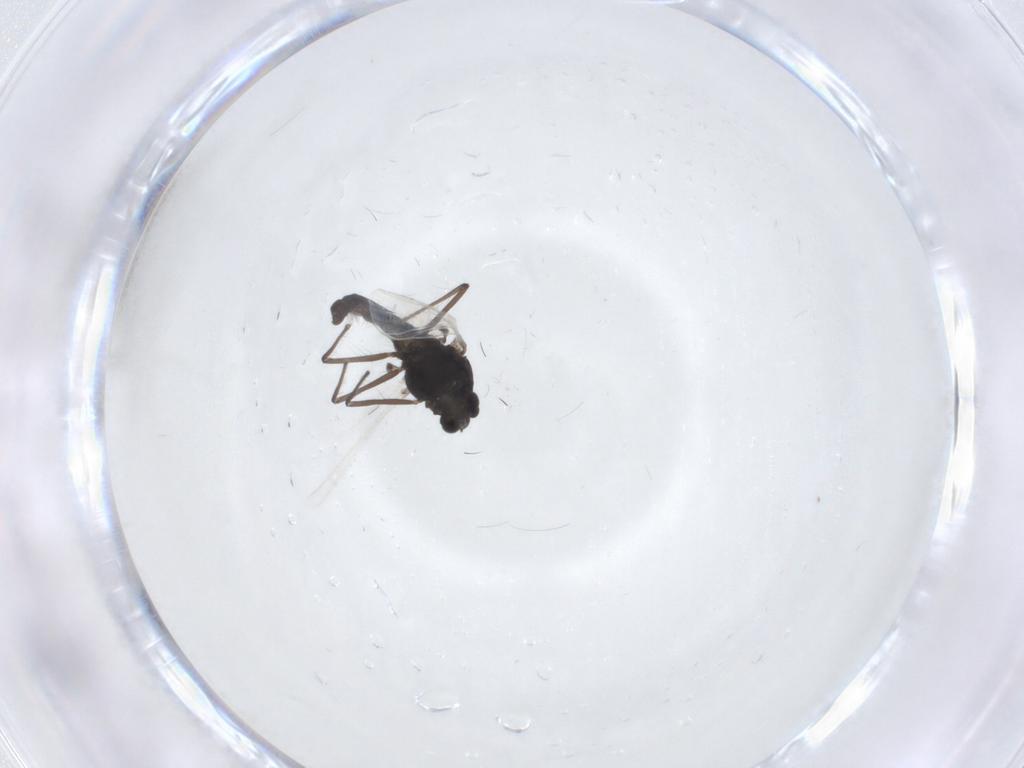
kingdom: Animalia
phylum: Arthropoda
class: Insecta
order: Diptera
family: Chironomidae
